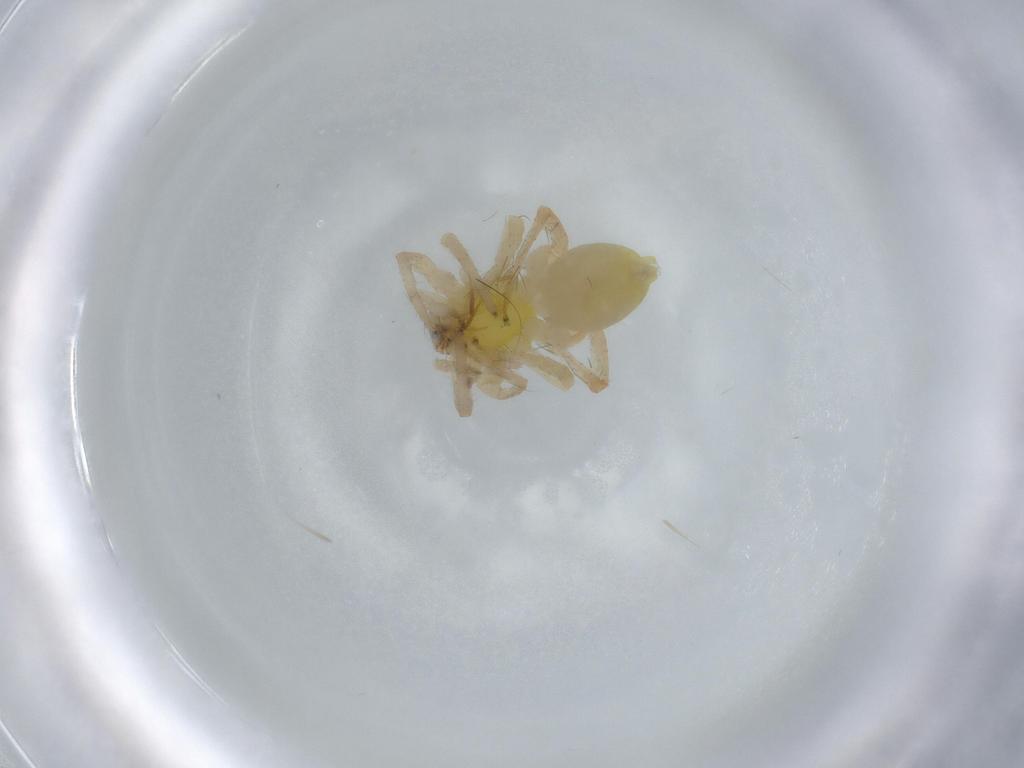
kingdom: Animalia
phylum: Arthropoda
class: Arachnida
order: Araneae
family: Anyphaenidae
